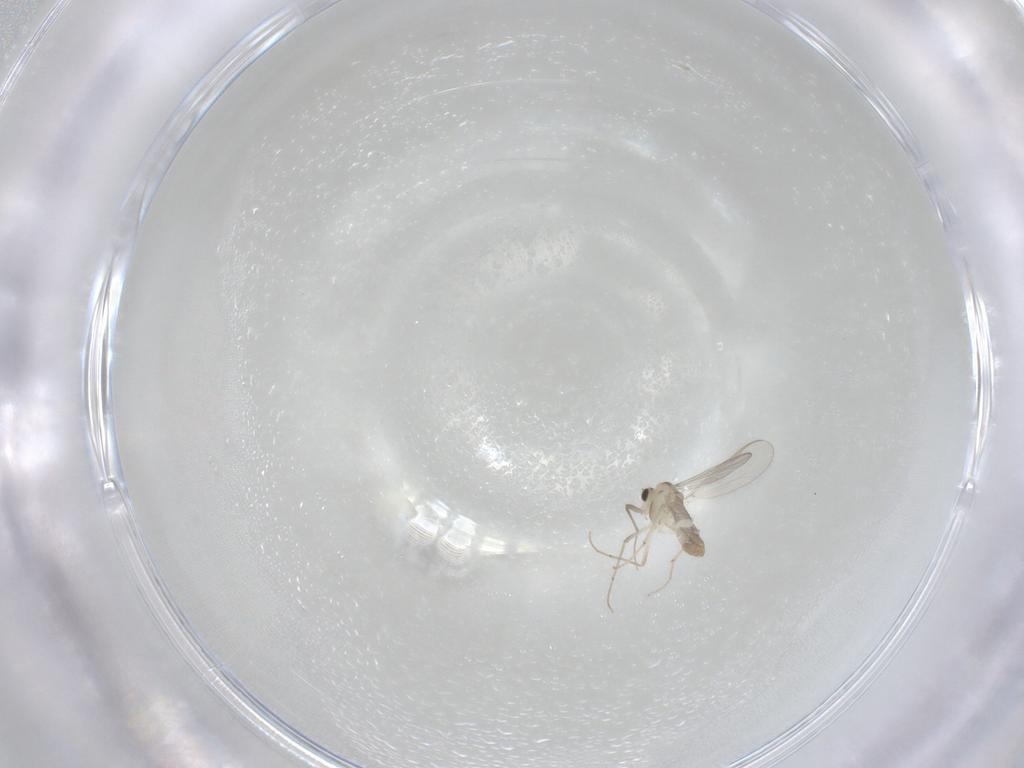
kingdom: Animalia
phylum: Arthropoda
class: Insecta
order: Diptera
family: Chironomidae
